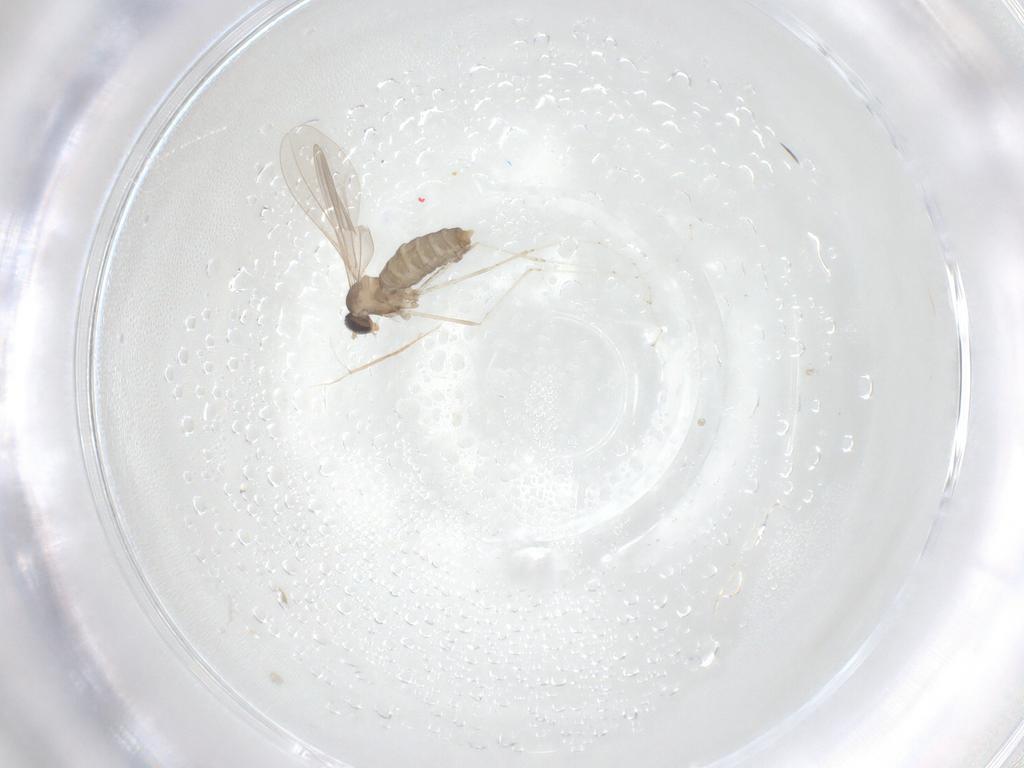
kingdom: Animalia
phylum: Arthropoda
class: Insecta
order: Diptera
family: Cecidomyiidae
